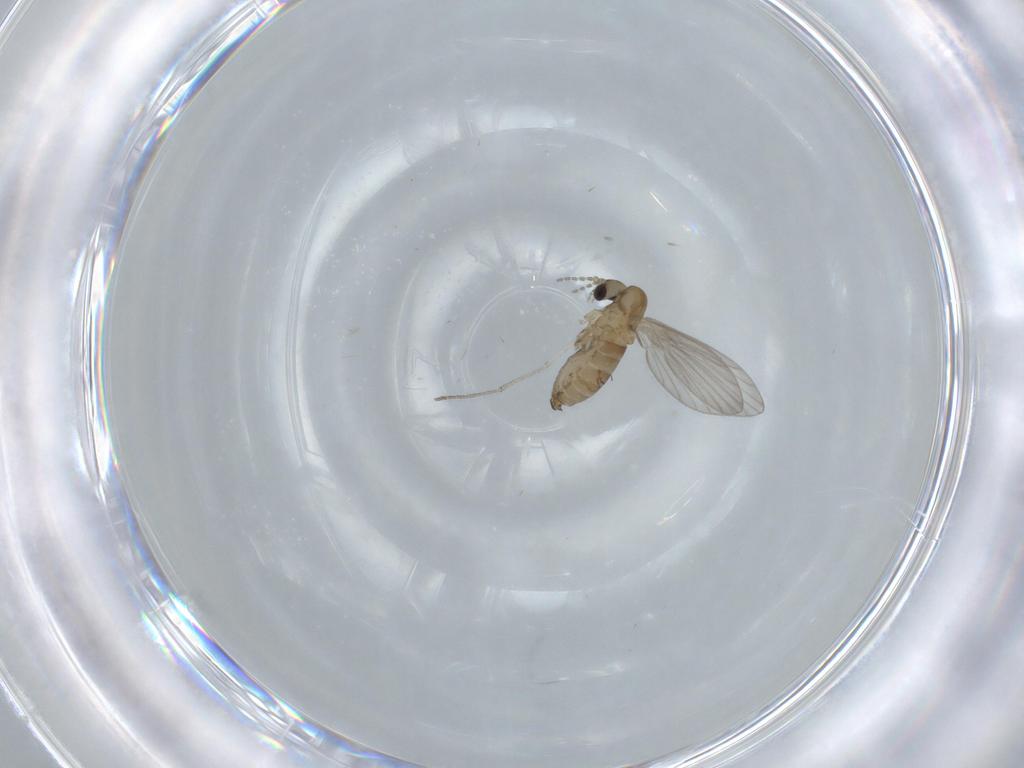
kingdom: Animalia
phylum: Arthropoda
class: Insecta
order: Diptera
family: Psychodidae
